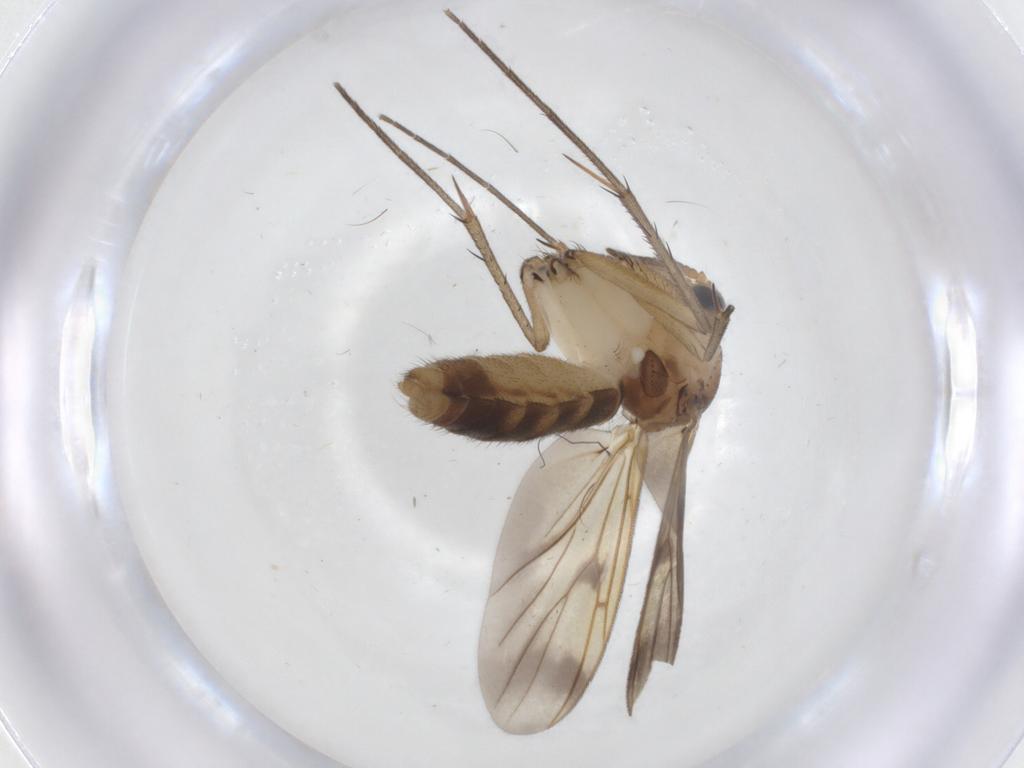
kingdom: Animalia
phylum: Arthropoda
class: Insecta
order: Diptera
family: Mycetophilidae
